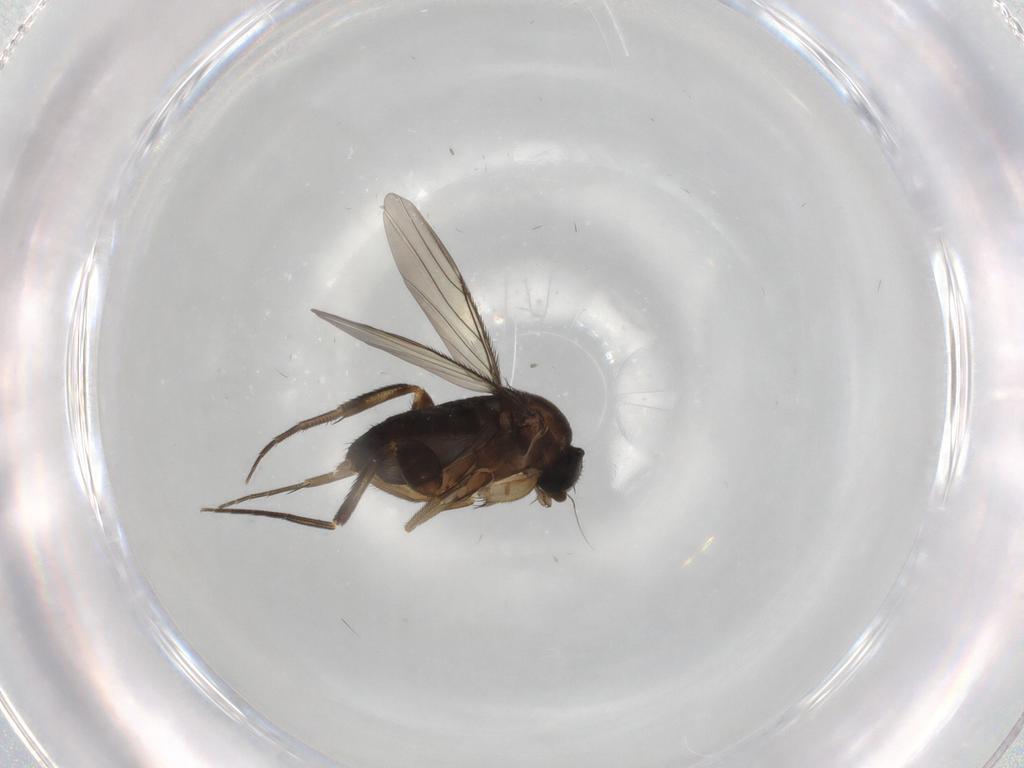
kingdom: Animalia
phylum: Arthropoda
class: Insecta
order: Diptera
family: Phoridae
